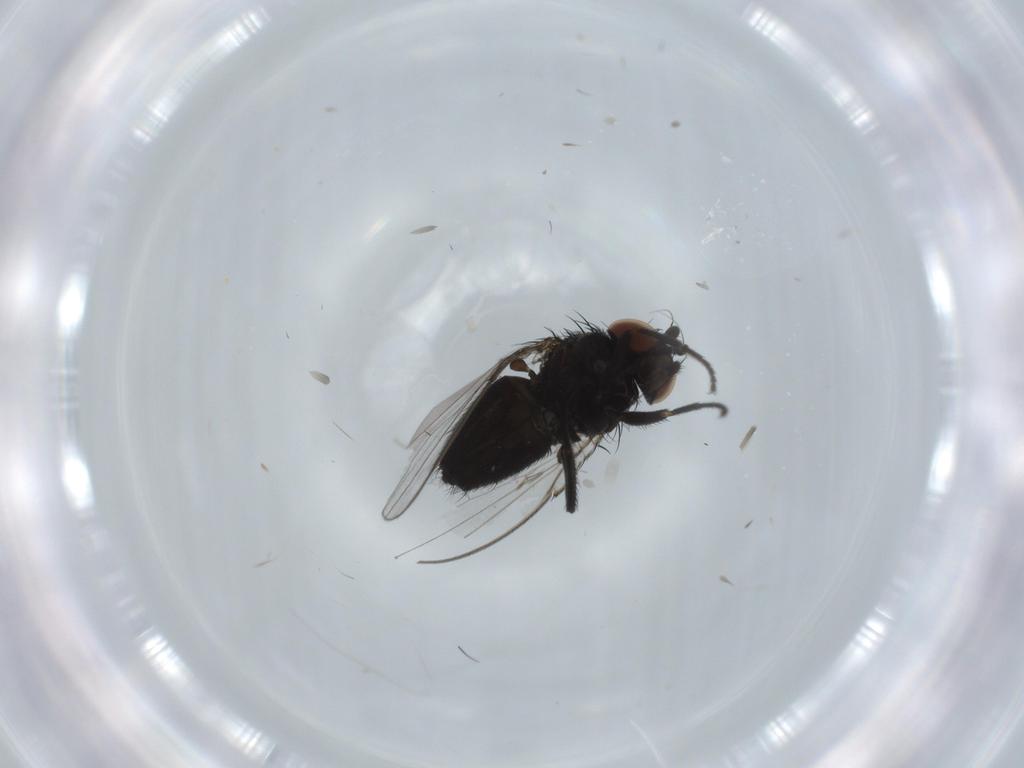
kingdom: Animalia
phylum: Arthropoda
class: Insecta
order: Diptera
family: Milichiidae
